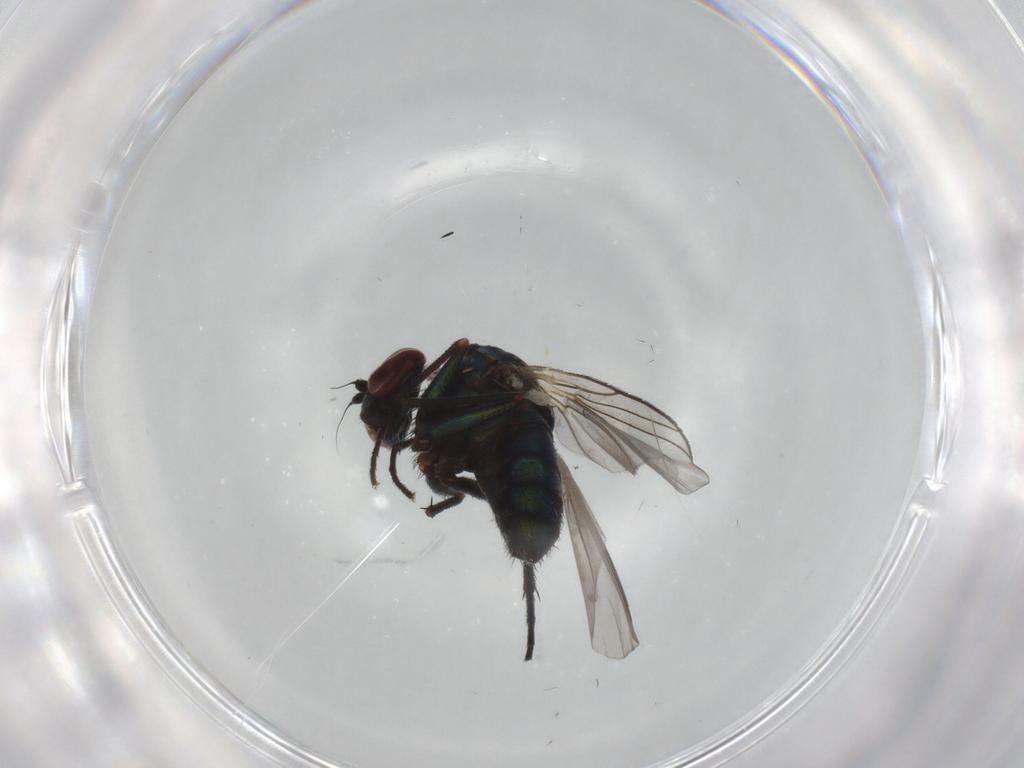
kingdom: Animalia
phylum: Arthropoda
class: Insecta
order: Diptera
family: Dolichopodidae
